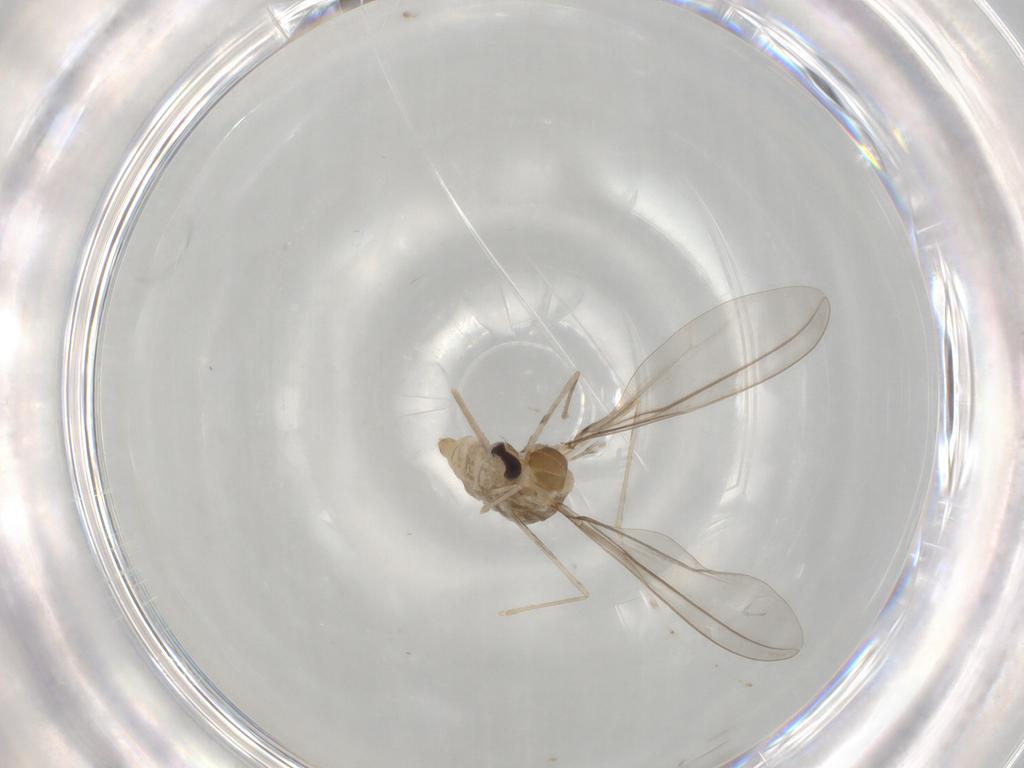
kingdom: Animalia
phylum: Arthropoda
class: Insecta
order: Diptera
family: Cecidomyiidae
